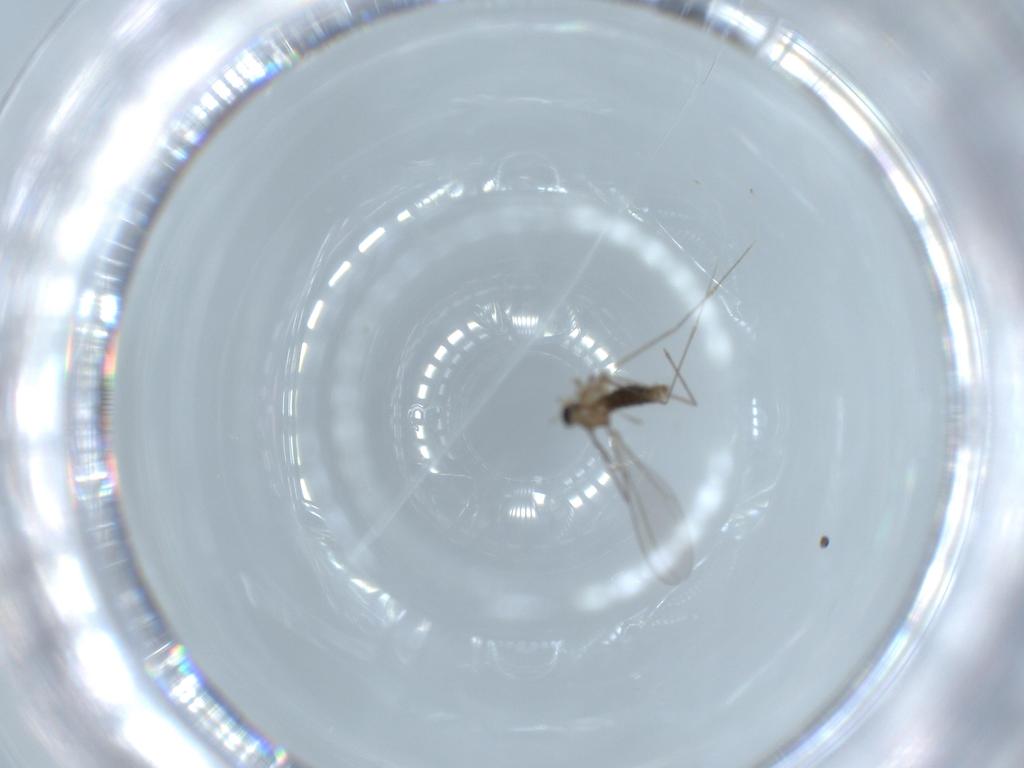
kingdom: Animalia
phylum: Arthropoda
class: Insecta
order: Diptera
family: Cecidomyiidae
